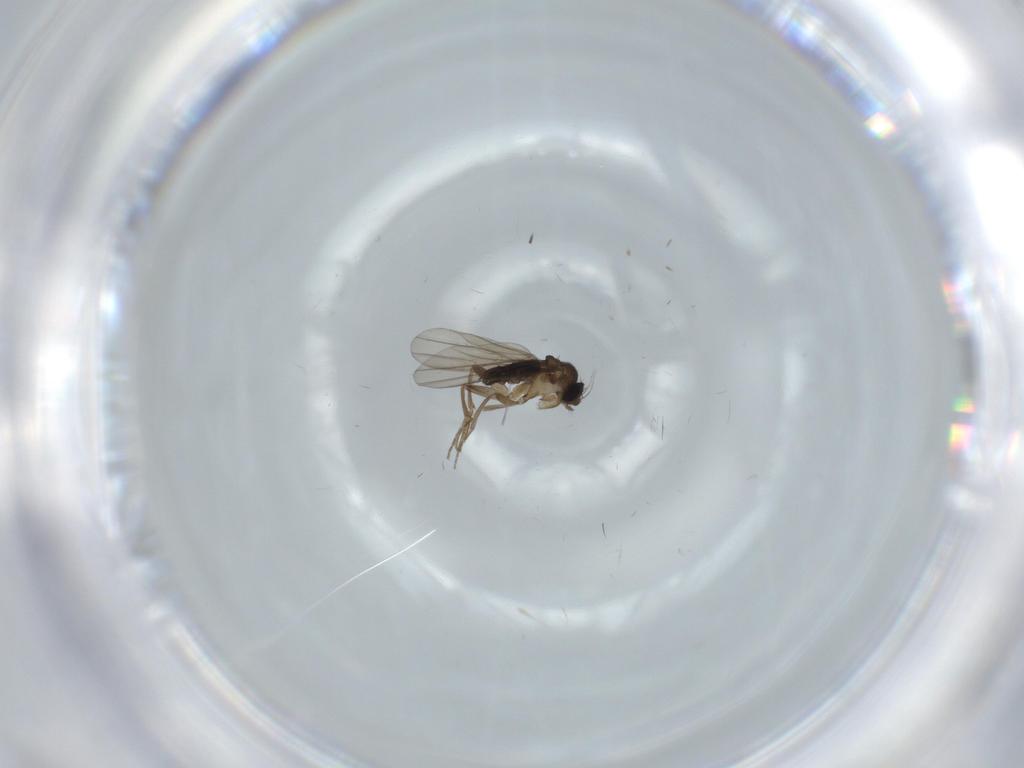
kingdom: Animalia
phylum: Arthropoda
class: Insecta
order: Diptera
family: Phoridae
